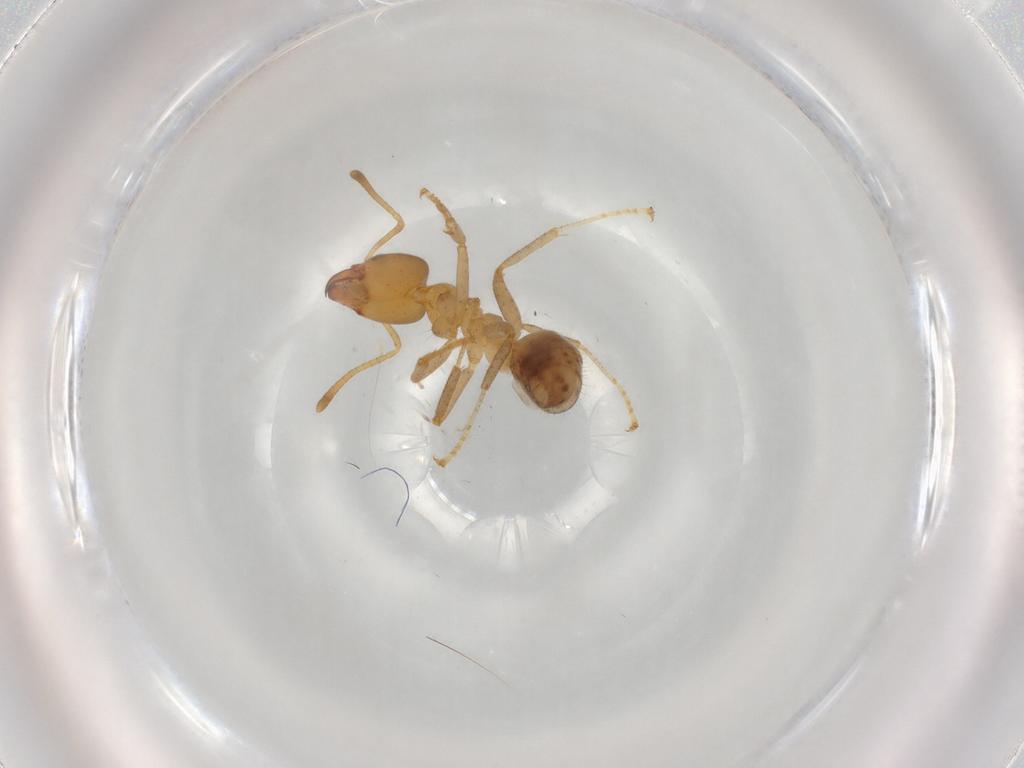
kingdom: Animalia
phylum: Arthropoda
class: Insecta
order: Hymenoptera
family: Formicidae
